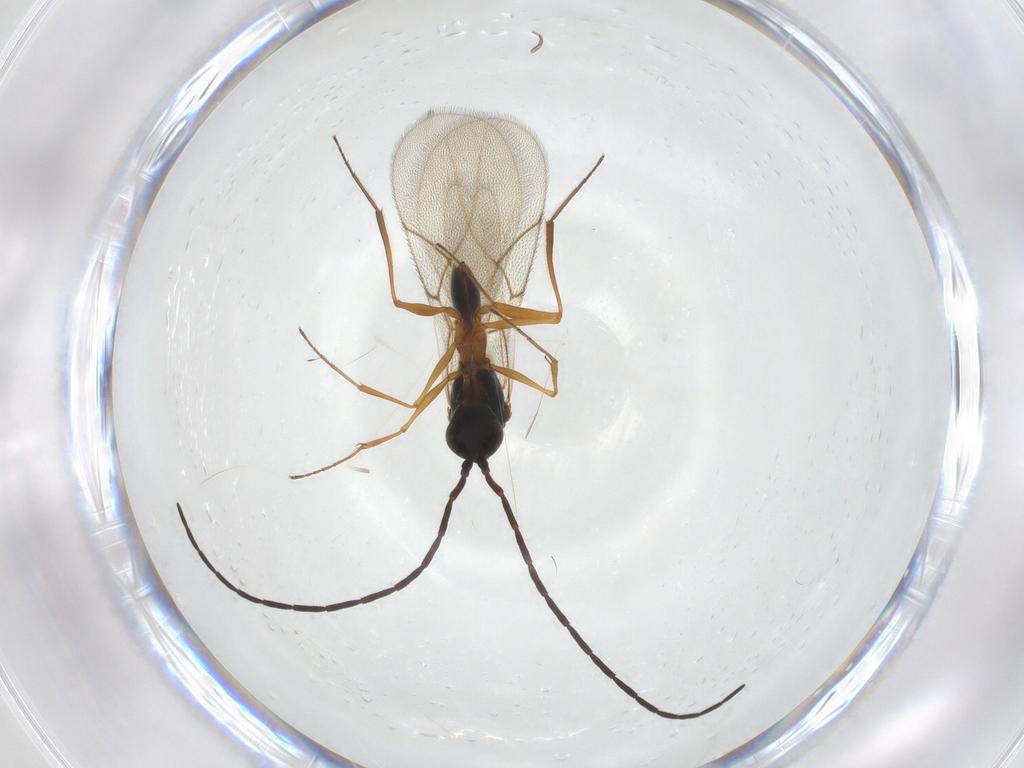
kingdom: Animalia
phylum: Arthropoda
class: Insecta
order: Hymenoptera
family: Figitidae
